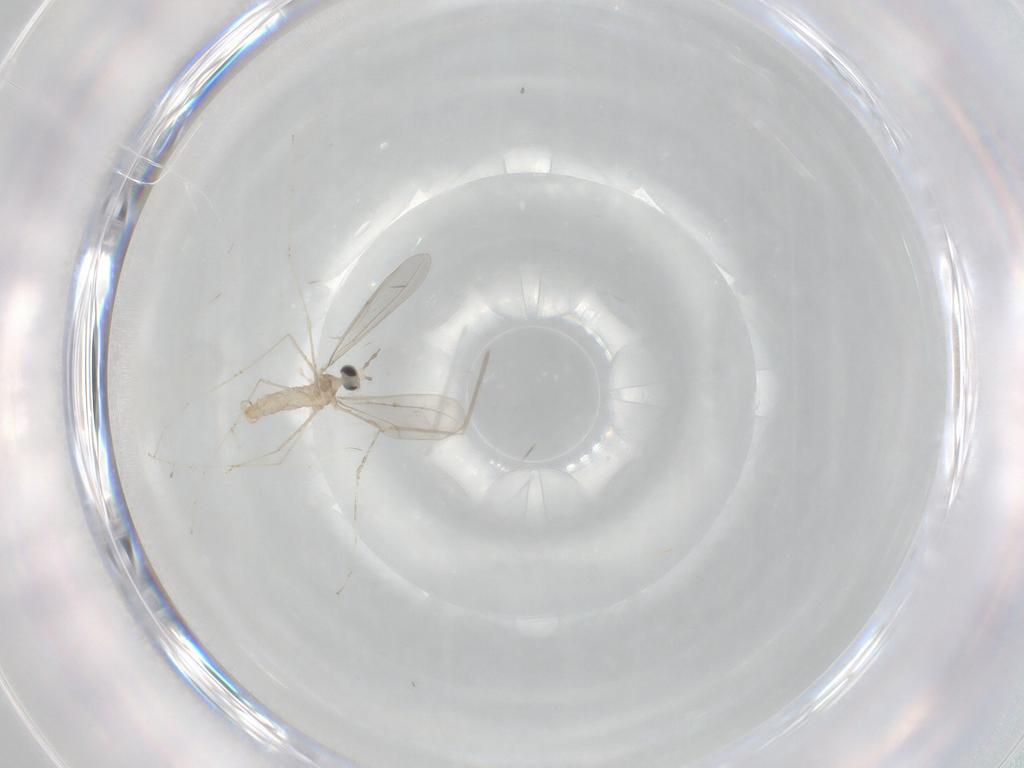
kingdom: Animalia
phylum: Arthropoda
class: Insecta
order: Diptera
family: Cecidomyiidae
